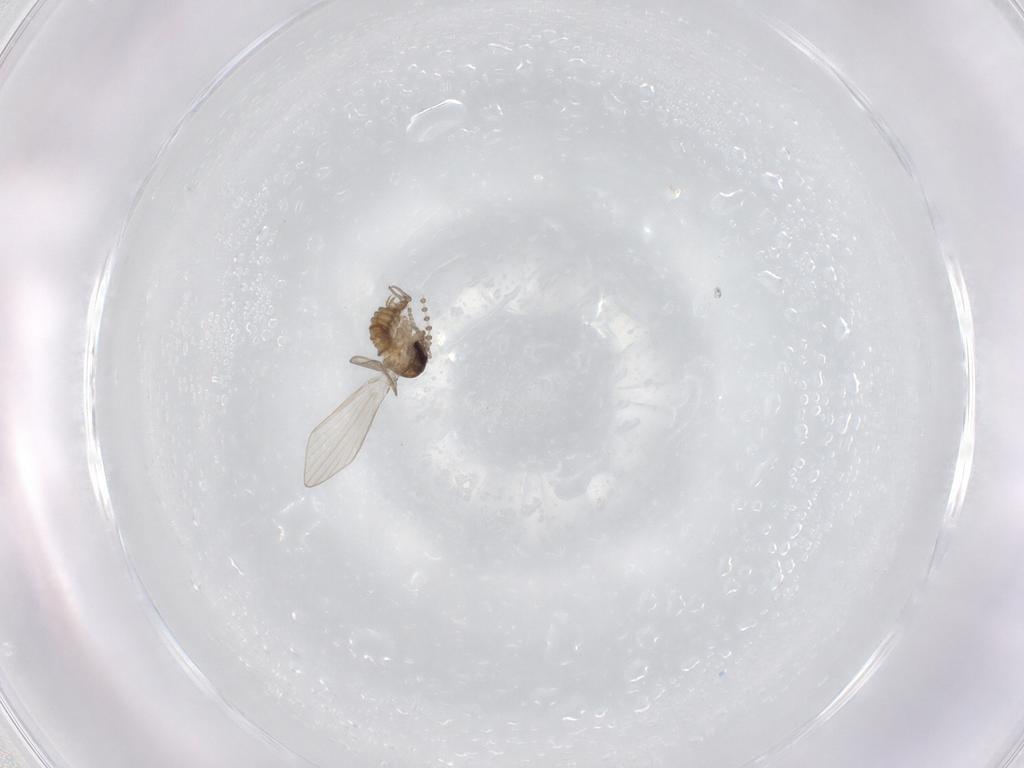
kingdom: Animalia
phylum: Arthropoda
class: Insecta
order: Diptera
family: Psychodidae
